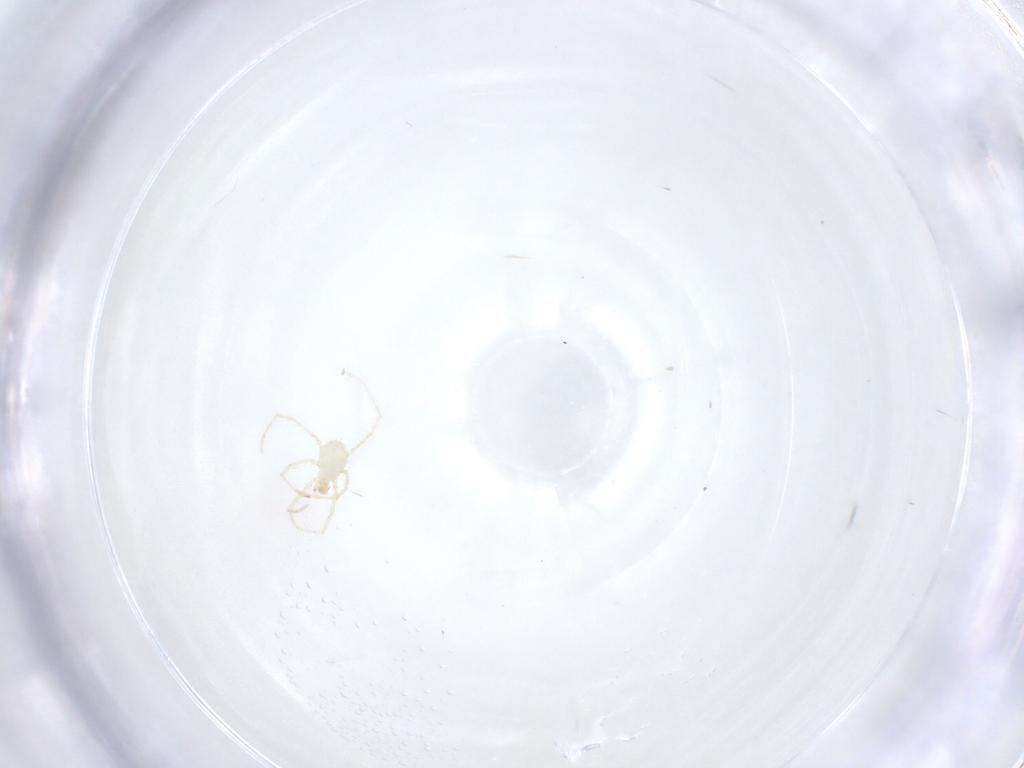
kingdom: Animalia
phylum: Arthropoda
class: Arachnida
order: Trombidiformes
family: Erythraeidae
